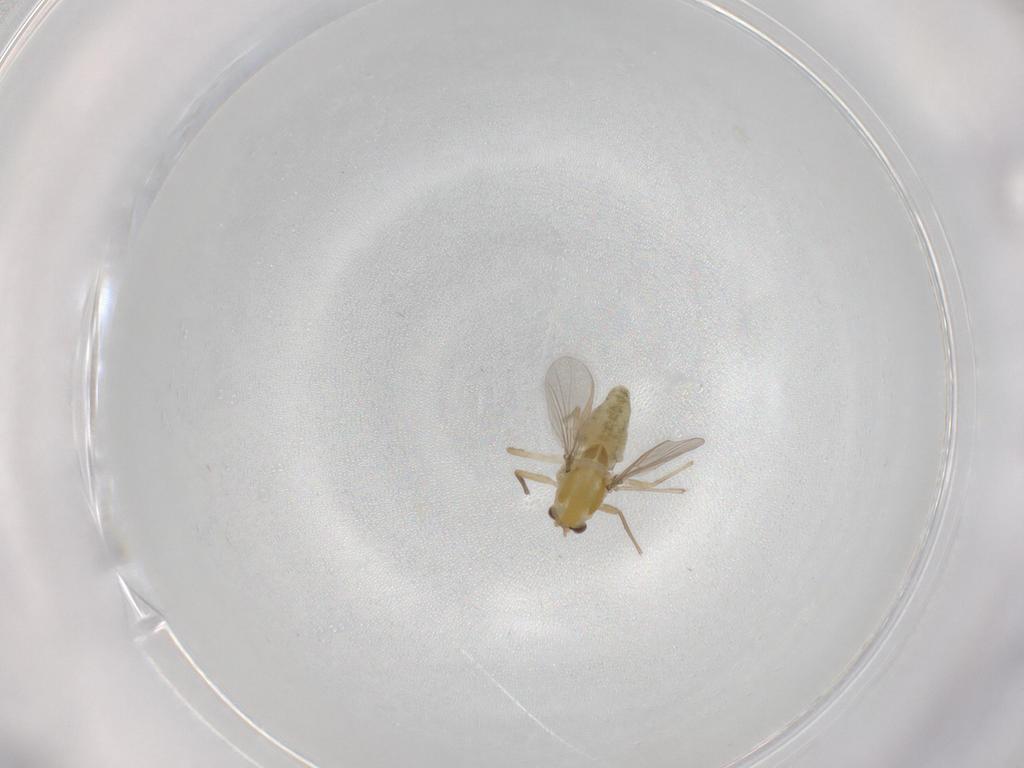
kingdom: Animalia
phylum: Arthropoda
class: Insecta
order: Diptera
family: Chironomidae
